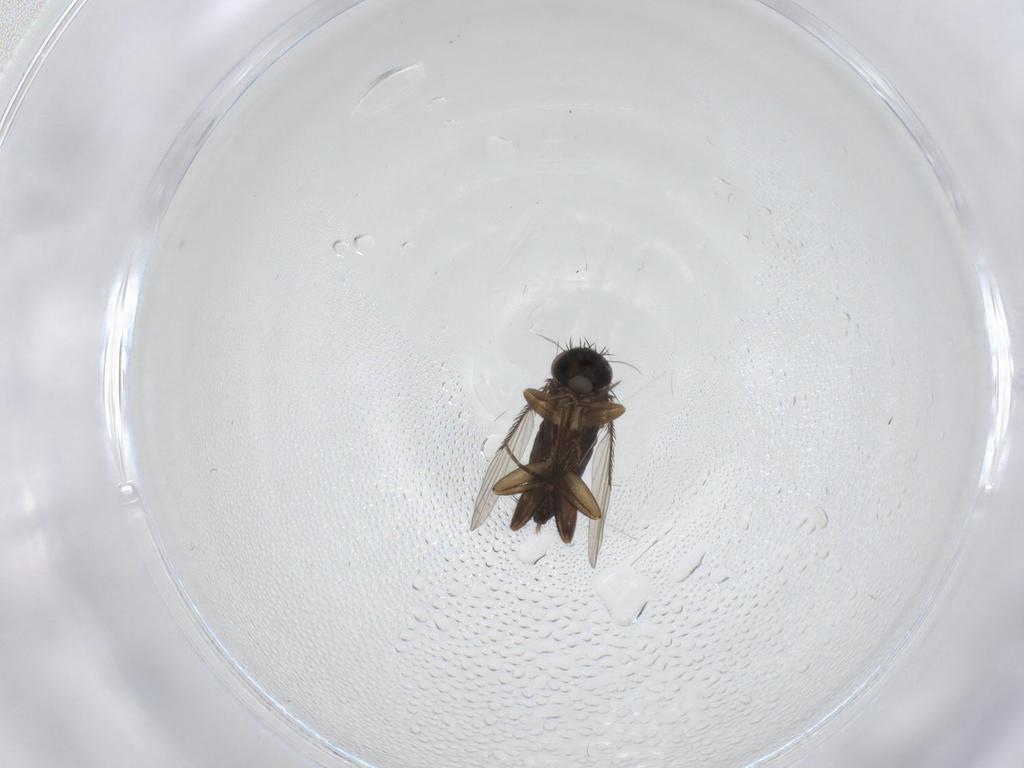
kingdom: Animalia
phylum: Arthropoda
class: Insecta
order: Diptera
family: Phoridae
